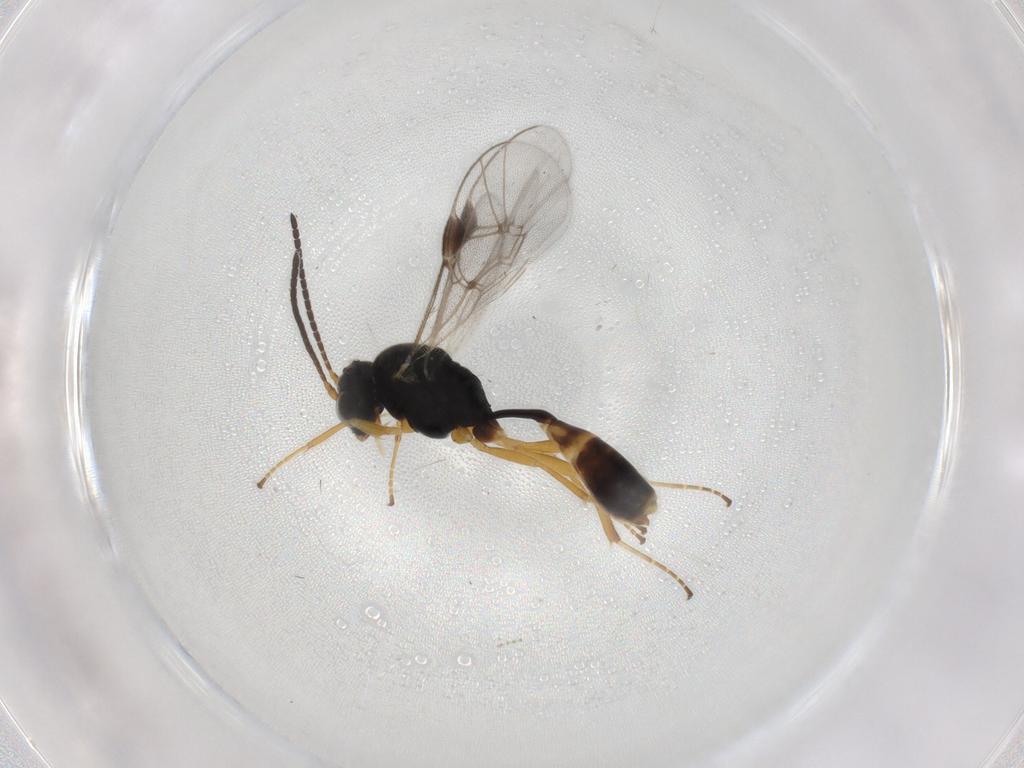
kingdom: Animalia
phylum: Arthropoda
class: Insecta
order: Hymenoptera
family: Ichneumonidae
